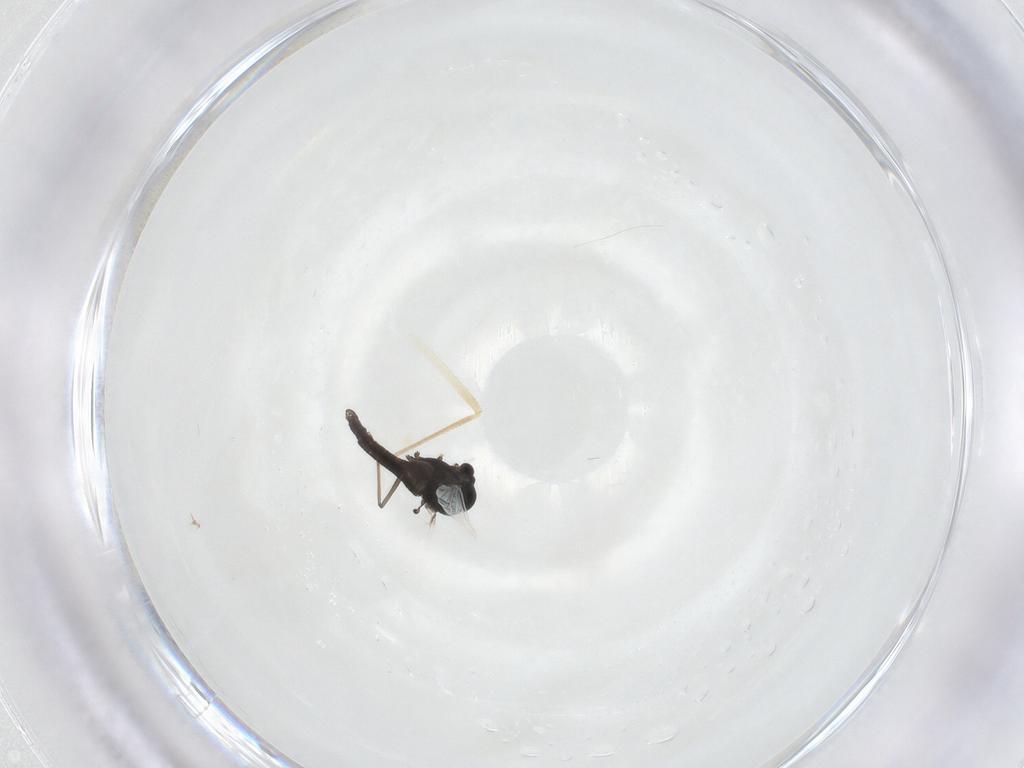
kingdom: Animalia
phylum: Arthropoda
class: Insecta
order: Diptera
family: Chironomidae
